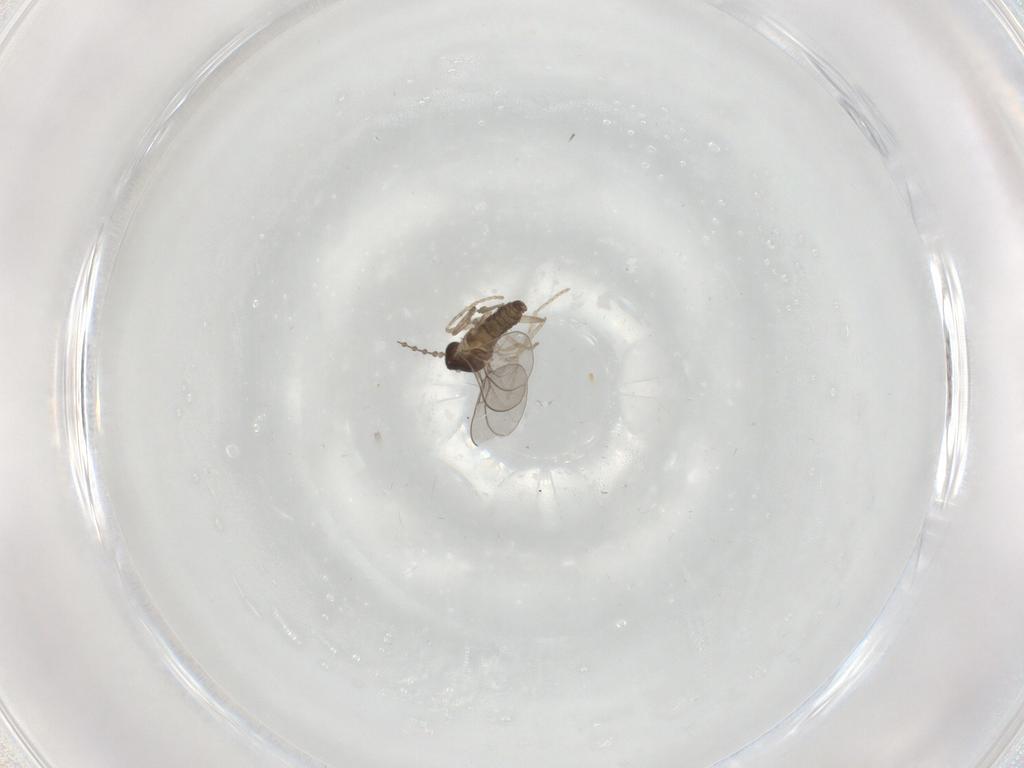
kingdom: Animalia
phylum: Arthropoda
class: Insecta
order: Diptera
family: Cecidomyiidae
